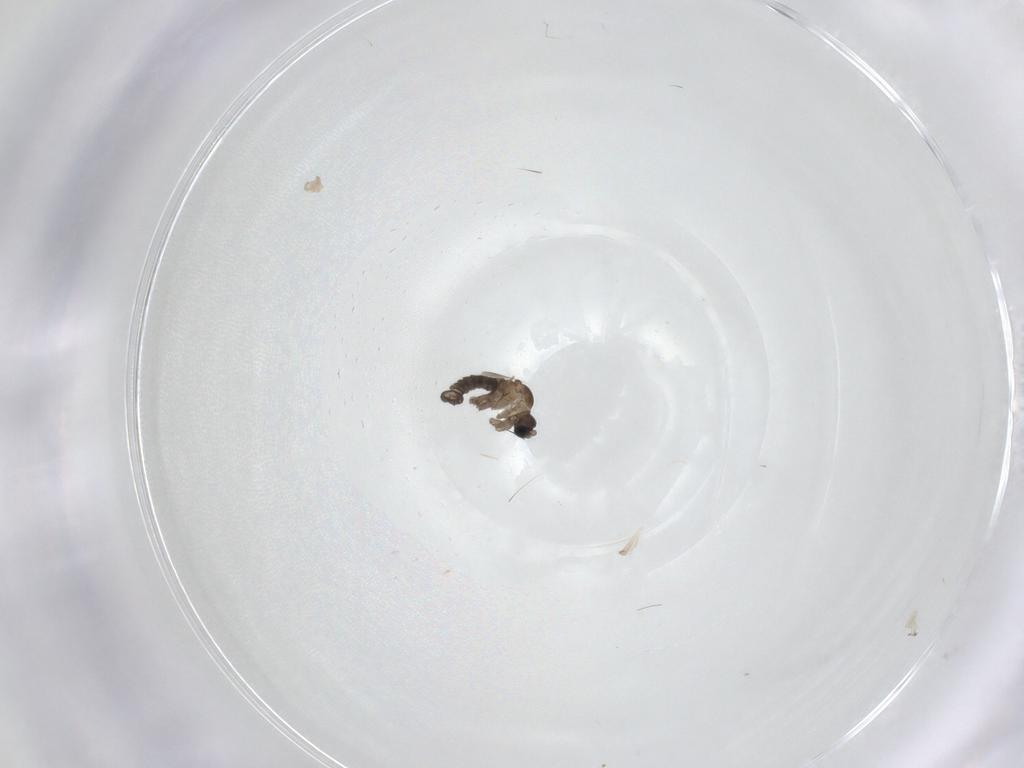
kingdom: Animalia
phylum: Arthropoda
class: Insecta
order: Diptera
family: Sciaridae
